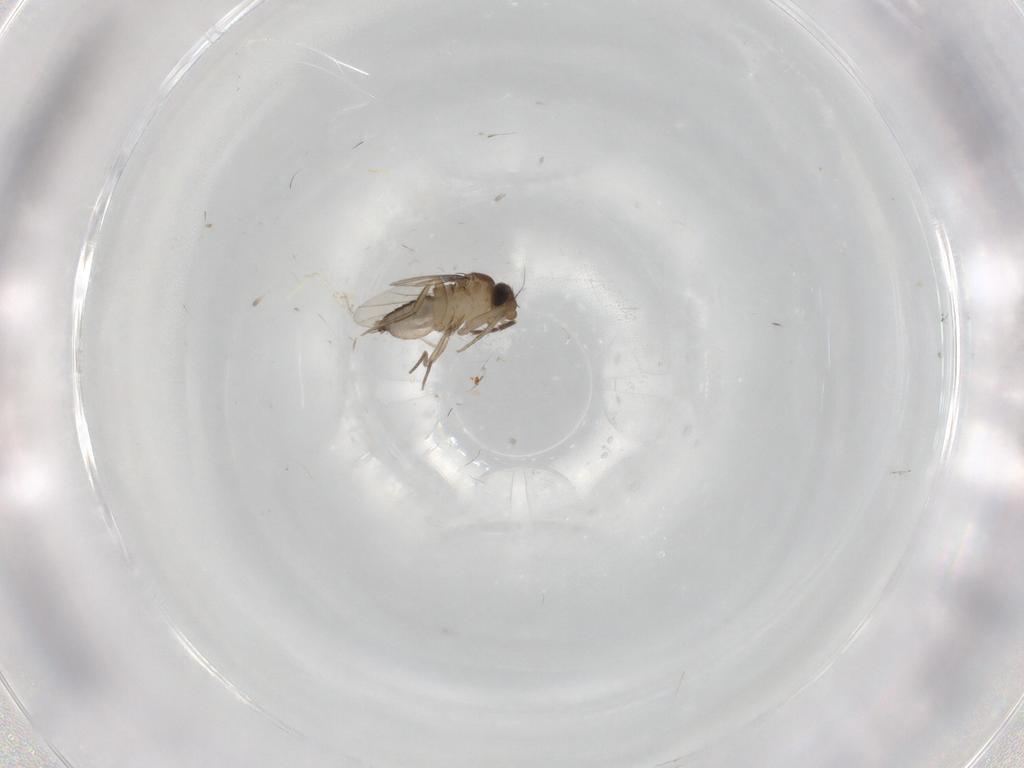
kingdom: Animalia
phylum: Arthropoda
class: Insecta
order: Diptera
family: Phoridae
